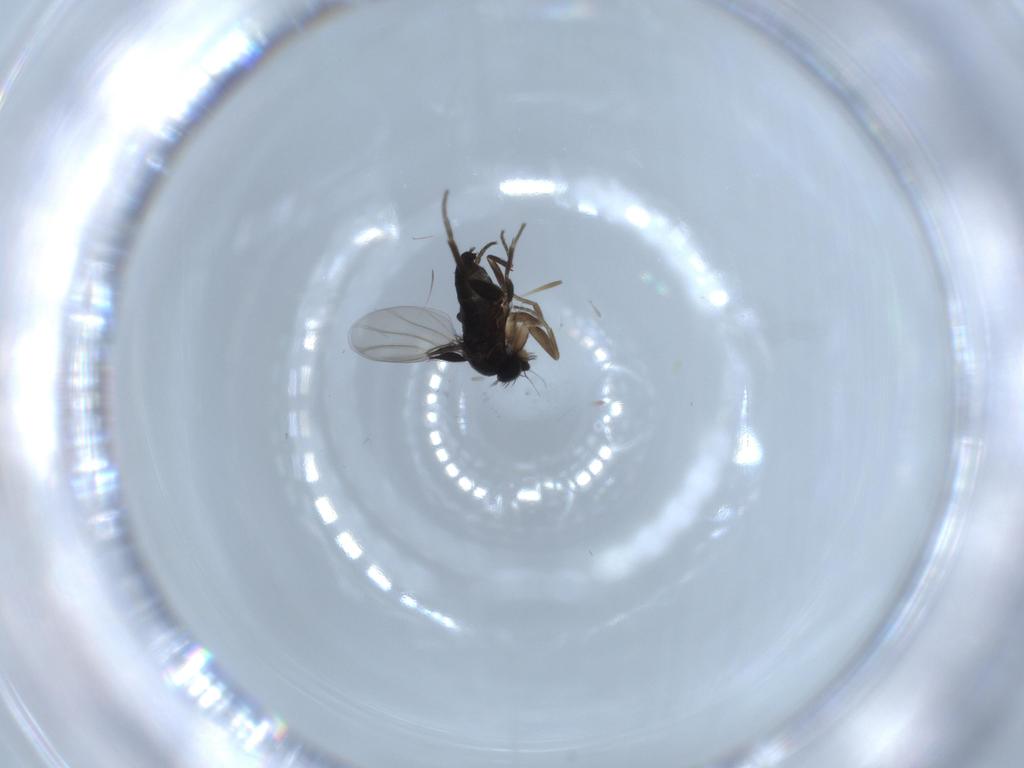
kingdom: Animalia
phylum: Arthropoda
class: Insecta
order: Diptera
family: Phoridae
